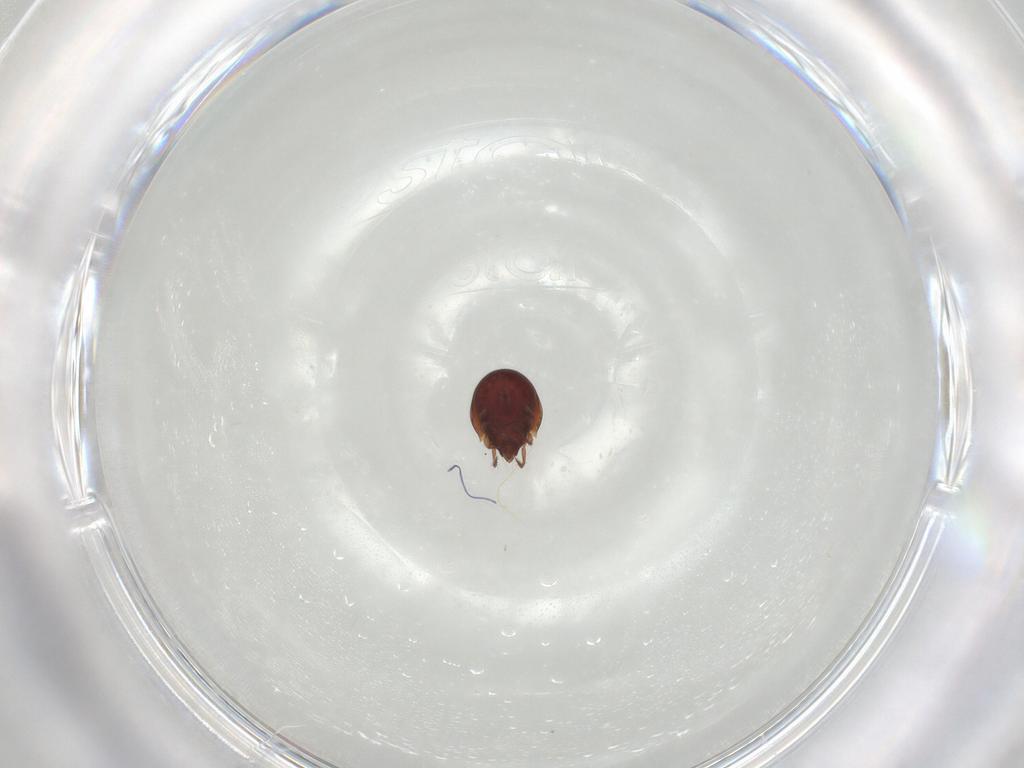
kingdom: Animalia
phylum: Arthropoda
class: Arachnida
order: Sarcoptiformes
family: Ceratozetidae
